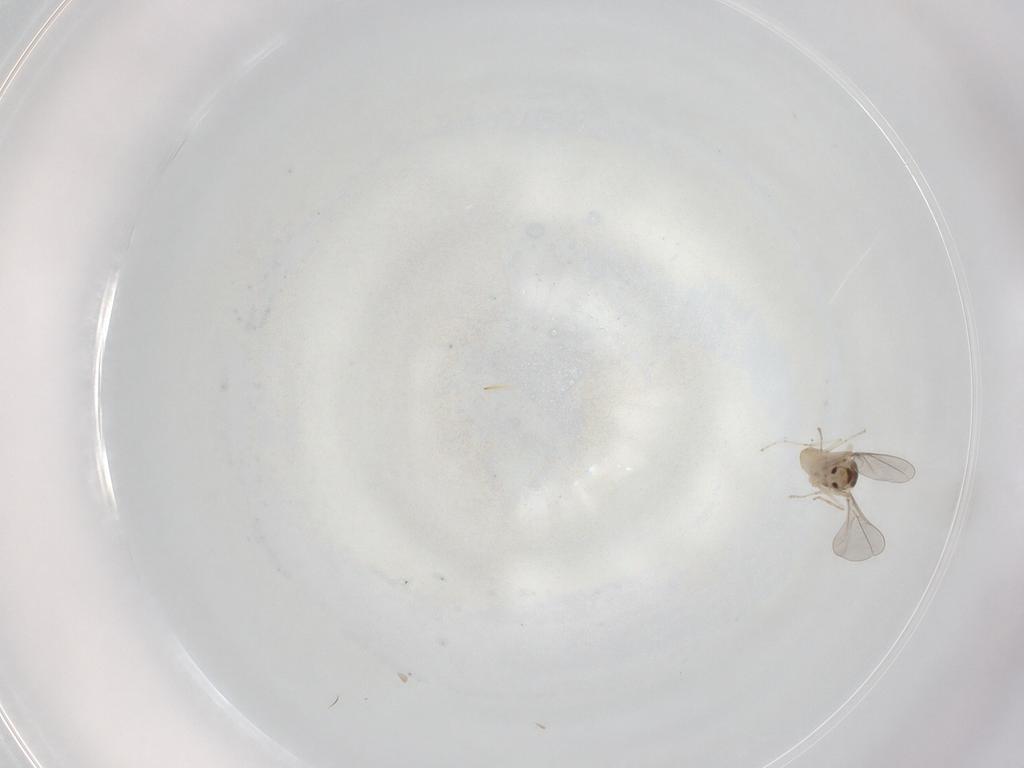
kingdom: Animalia
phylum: Arthropoda
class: Insecta
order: Diptera
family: Cecidomyiidae
